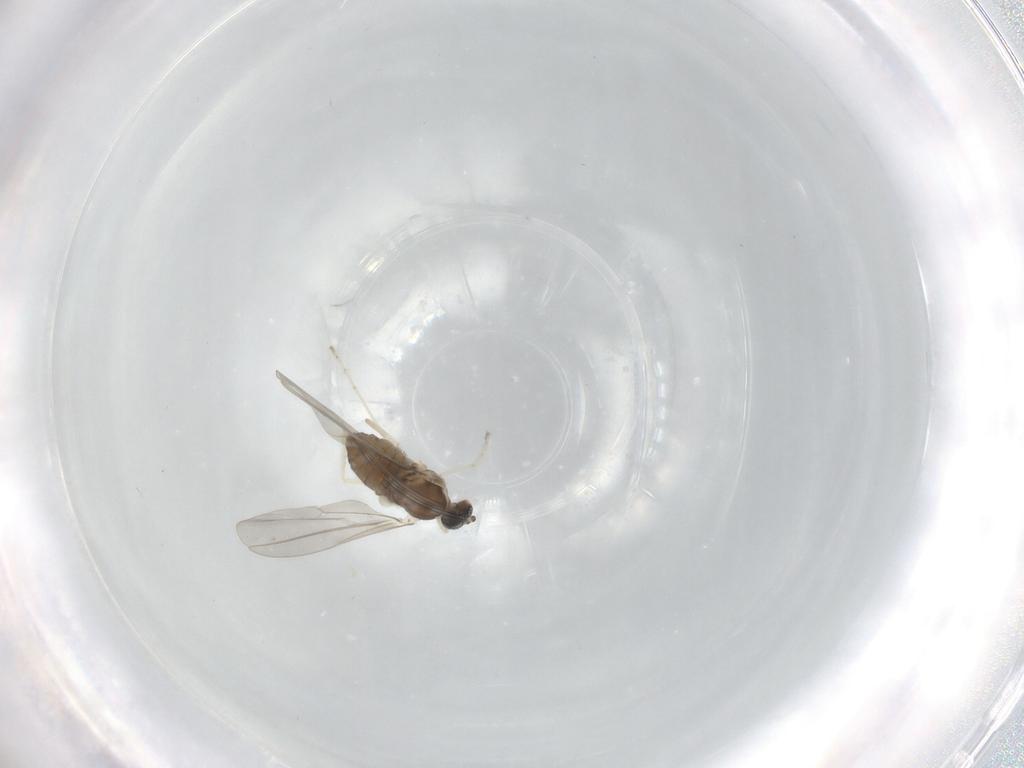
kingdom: Animalia
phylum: Arthropoda
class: Insecta
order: Diptera
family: Cecidomyiidae
